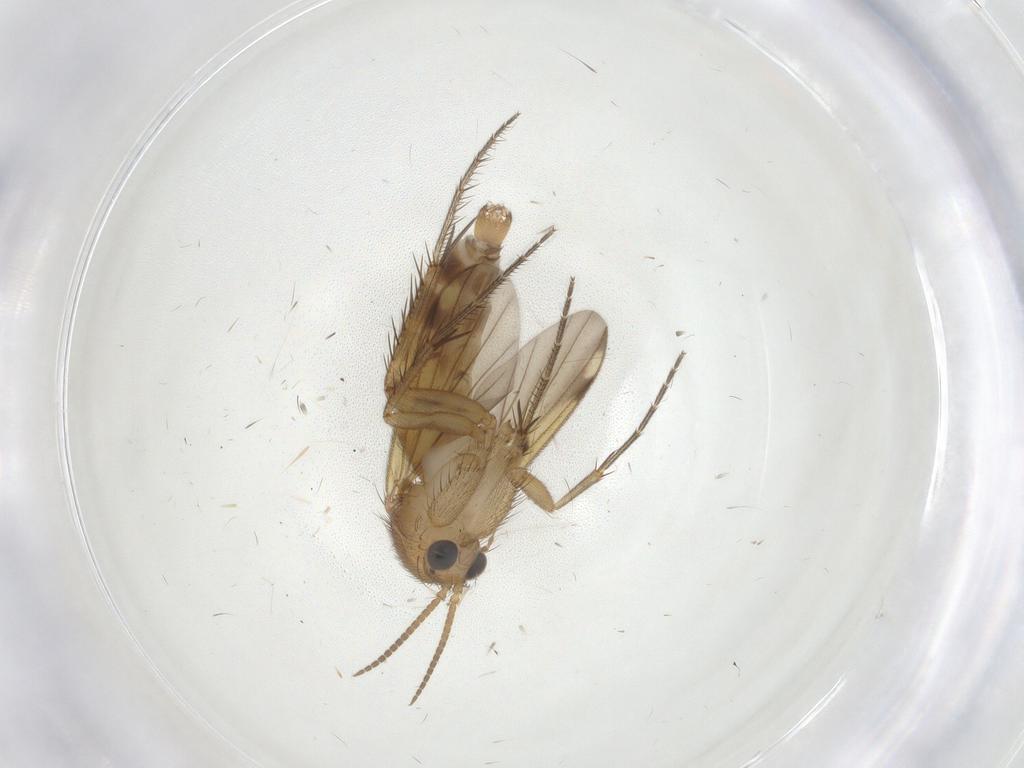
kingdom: Animalia
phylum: Arthropoda
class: Insecta
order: Diptera
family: Mycetophilidae
